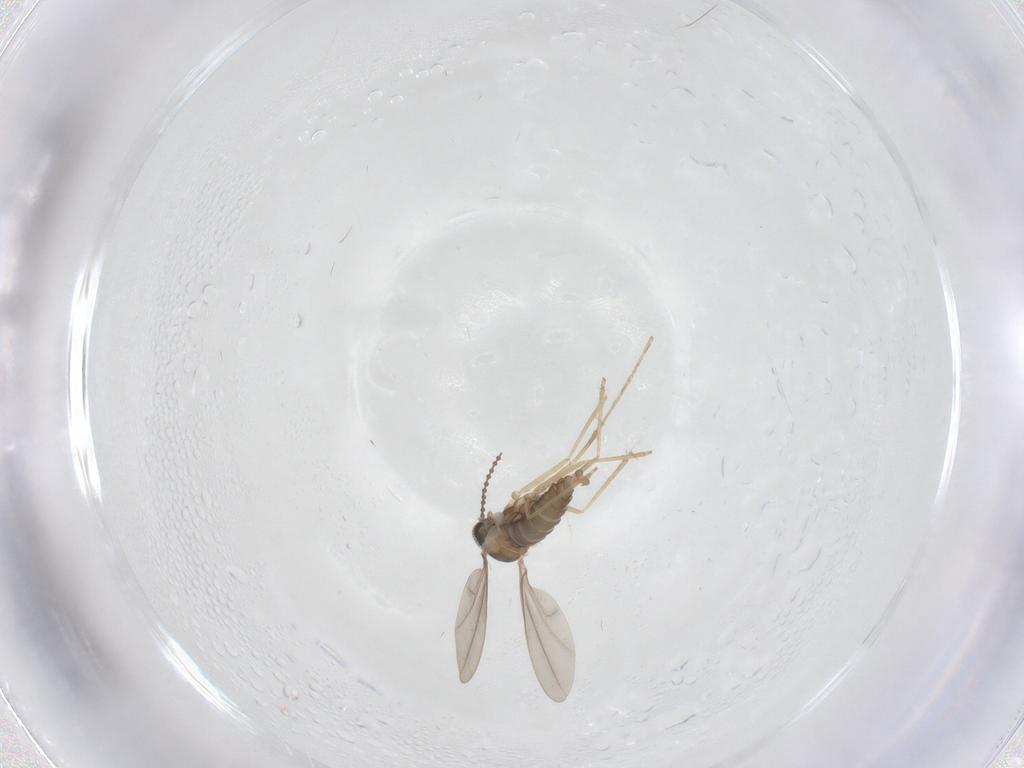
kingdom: Animalia
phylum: Arthropoda
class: Insecta
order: Diptera
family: Cecidomyiidae
